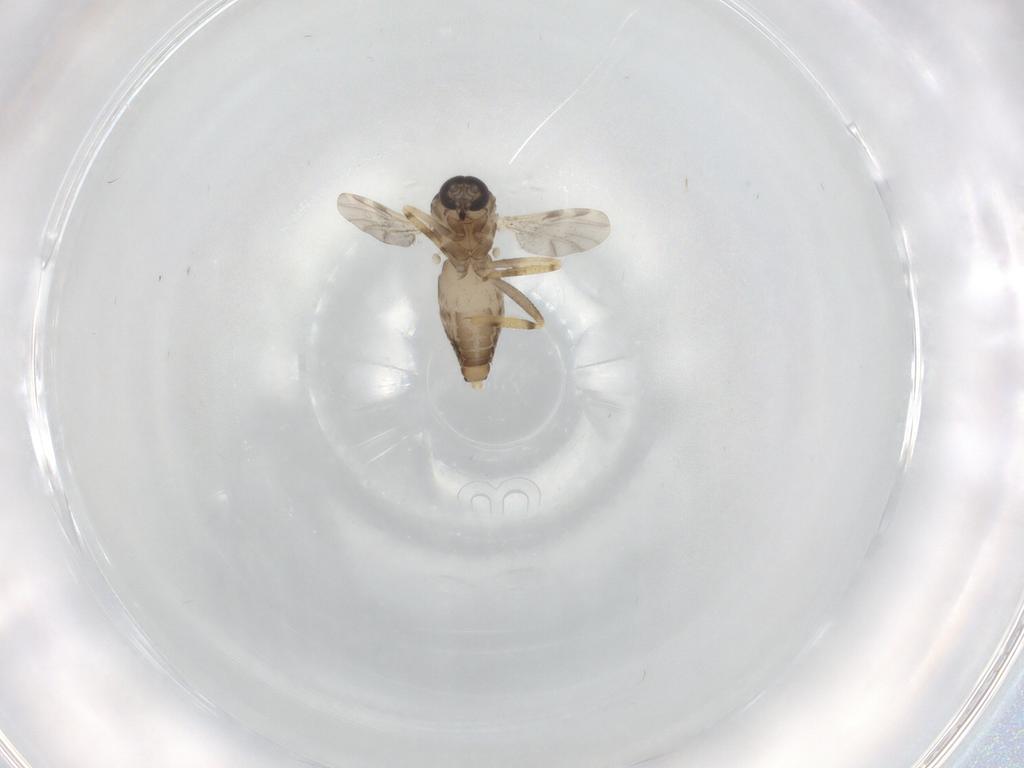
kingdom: Animalia
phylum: Arthropoda
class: Insecta
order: Diptera
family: Ceratopogonidae
